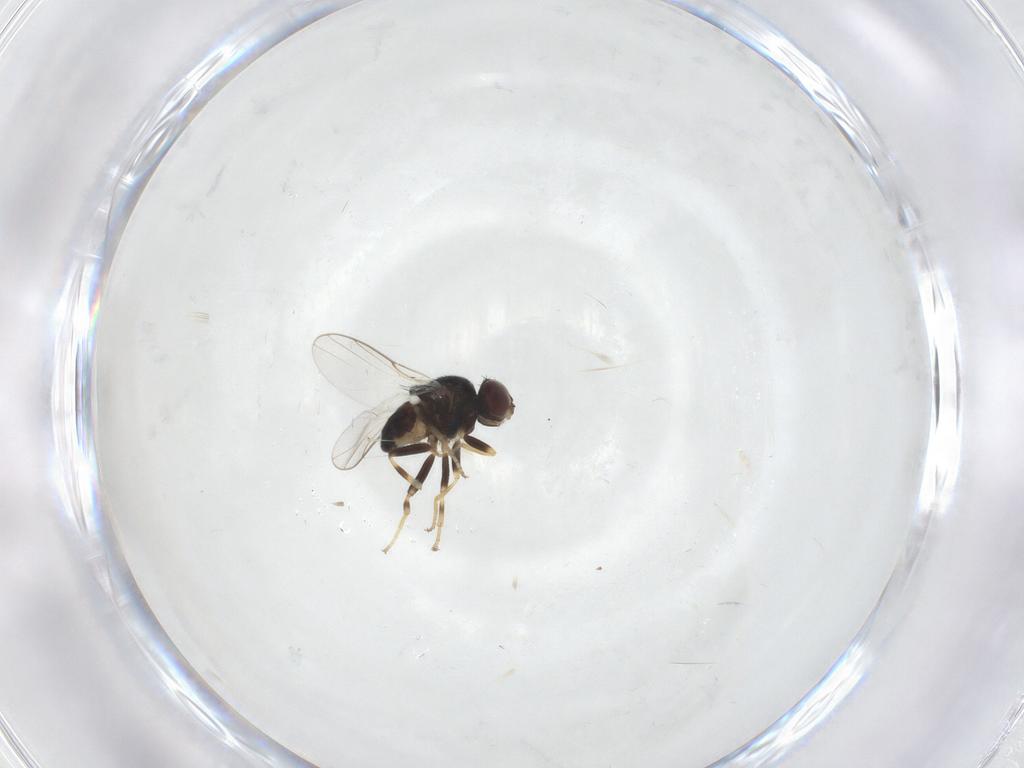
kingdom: Animalia
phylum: Arthropoda
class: Insecta
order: Diptera
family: Chloropidae
